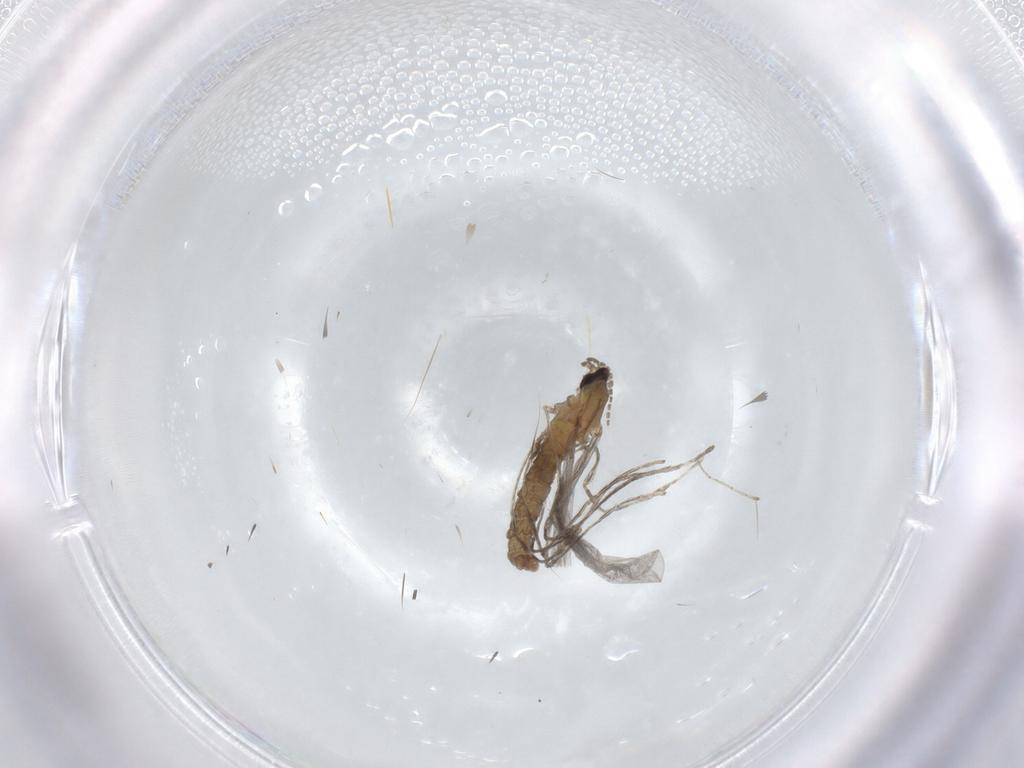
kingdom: Animalia
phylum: Arthropoda
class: Insecta
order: Diptera
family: Cecidomyiidae
